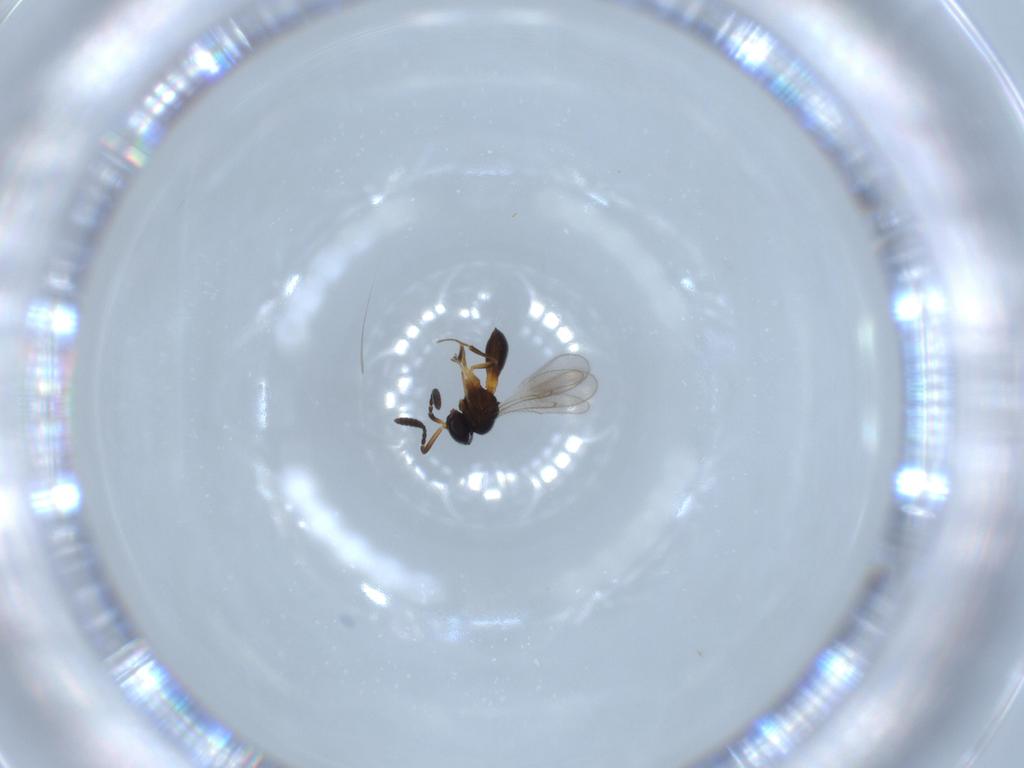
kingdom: Animalia
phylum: Arthropoda
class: Insecta
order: Hymenoptera
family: Scelionidae
